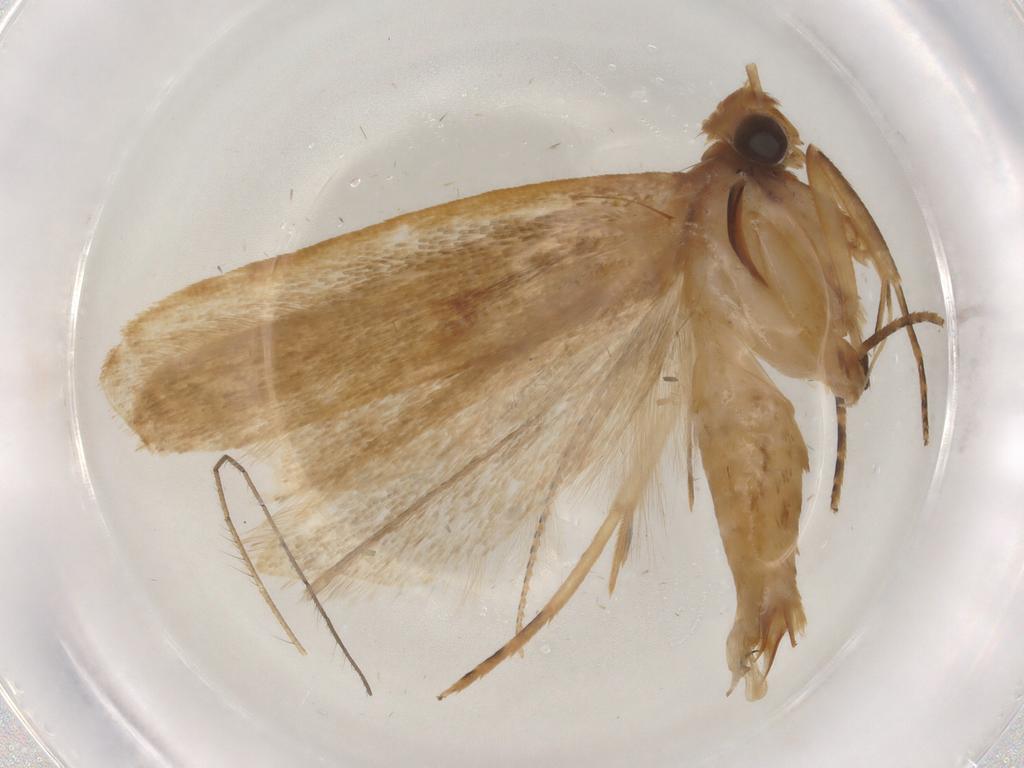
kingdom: Animalia
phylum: Arthropoda
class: Insecta
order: Lepidoptera
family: Gelechiidae
